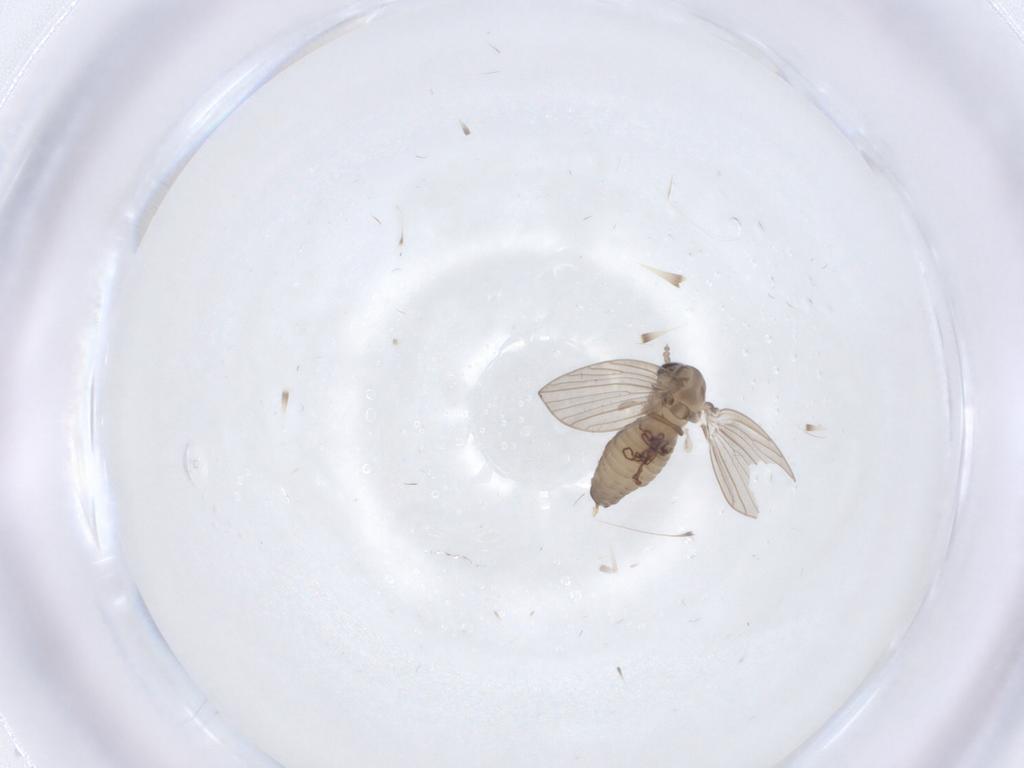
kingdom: Animalia
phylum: Arthropoda
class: Insecta
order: Diptera
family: Psychodidae
